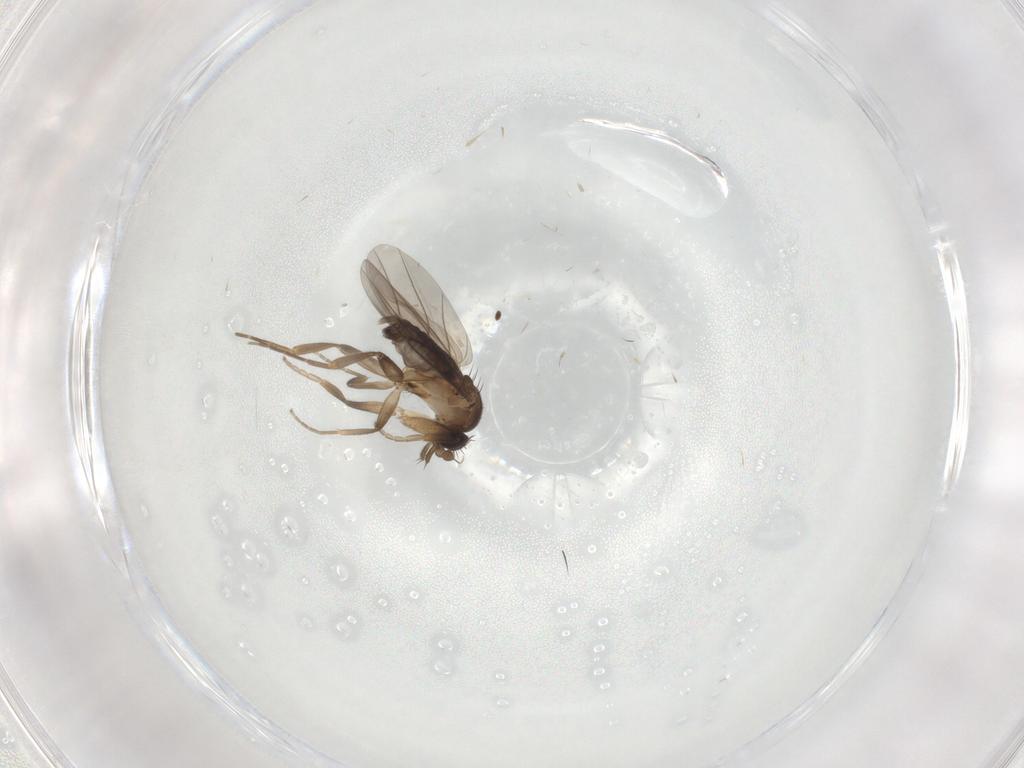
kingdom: Animalia
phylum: Arthropoda
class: Insecta
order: Diptera
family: Phoridae
